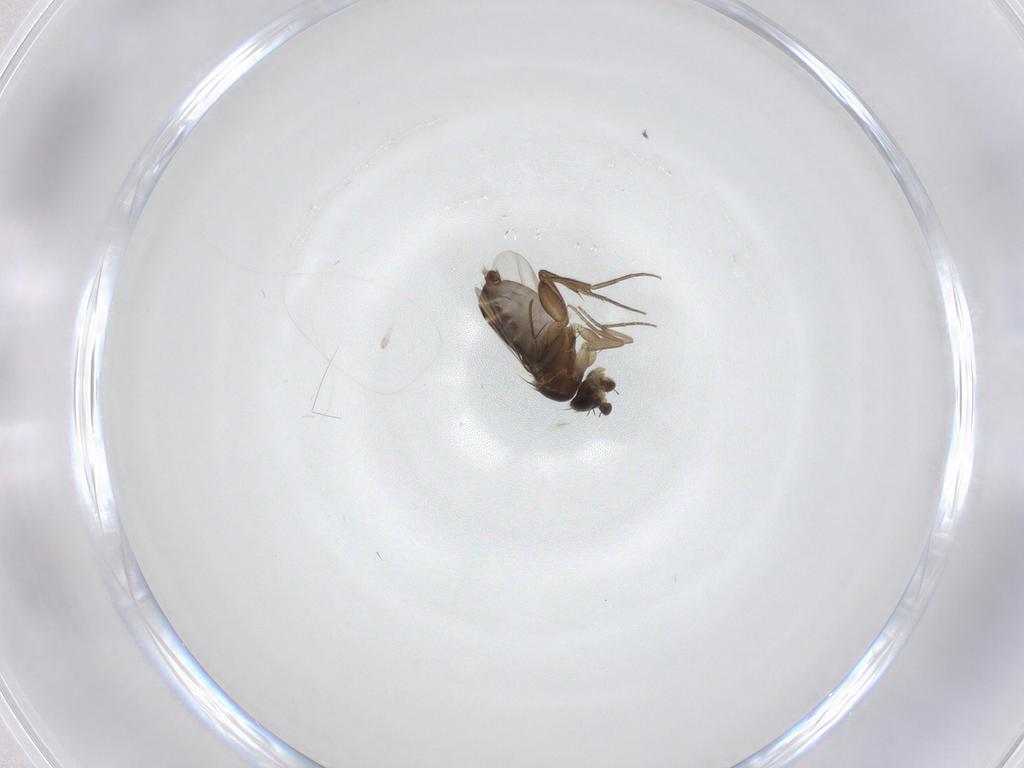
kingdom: Animalia
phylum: Arthropoda
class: Insecta
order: Diptera
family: Phoridae
